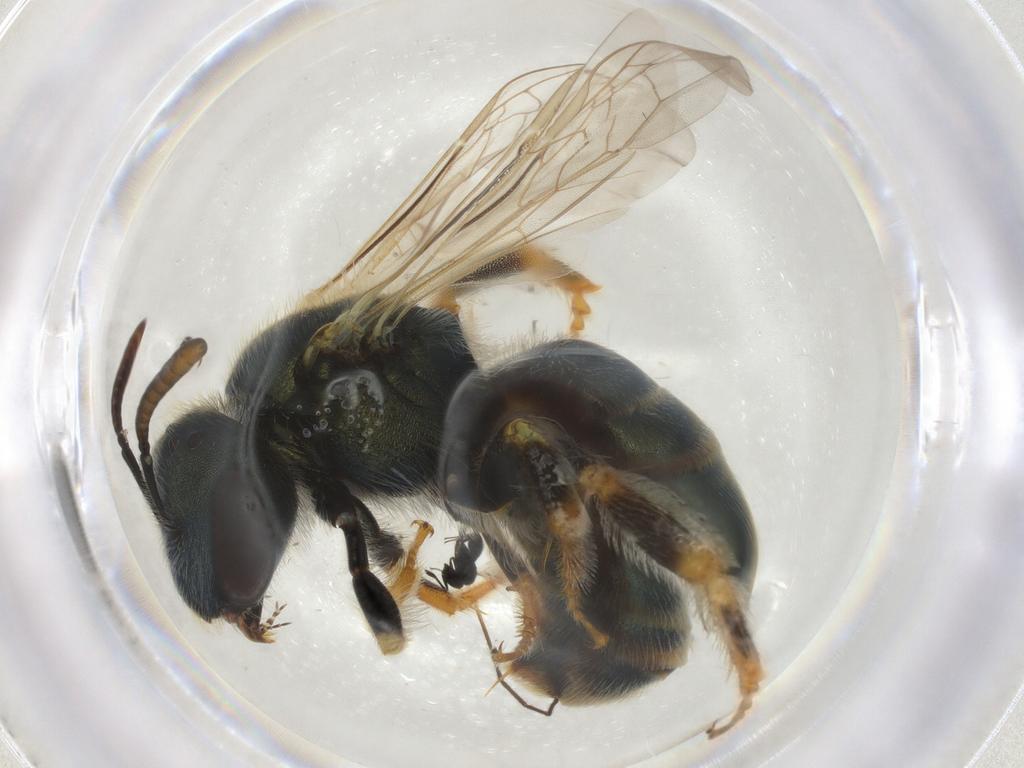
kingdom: Animalia
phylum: Arthropoda
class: Insecta
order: Hymenoptera
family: Scelionidae
